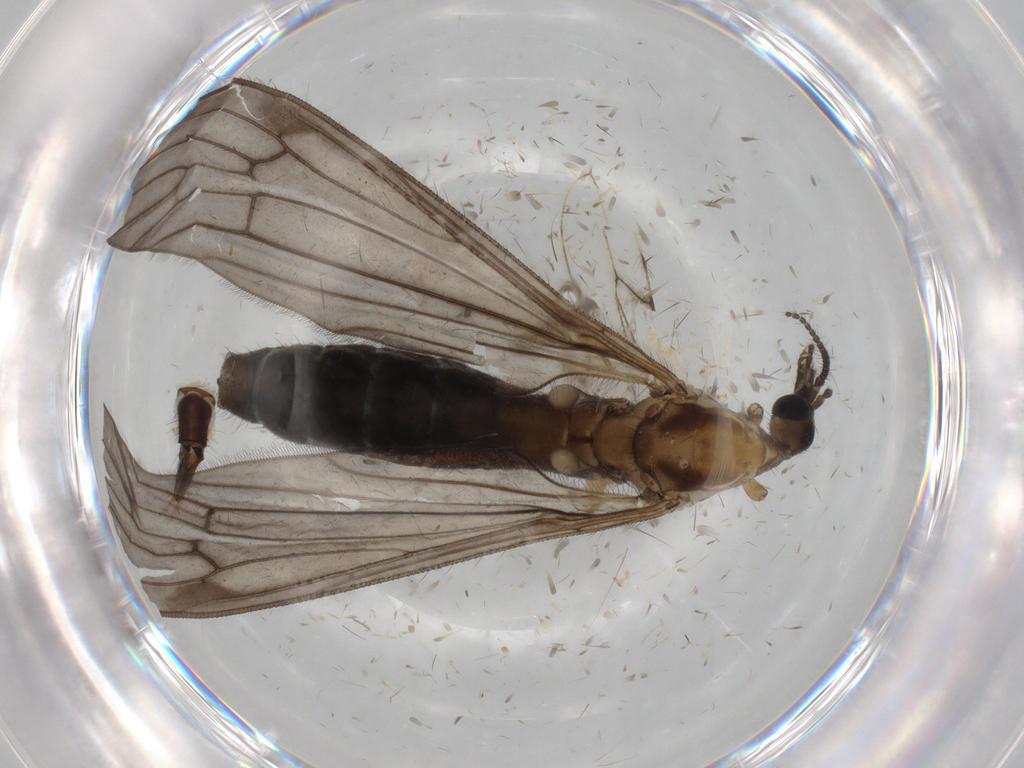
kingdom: Animalia
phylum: Arthropoda
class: Insecta
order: Diptera
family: Limoniidae
